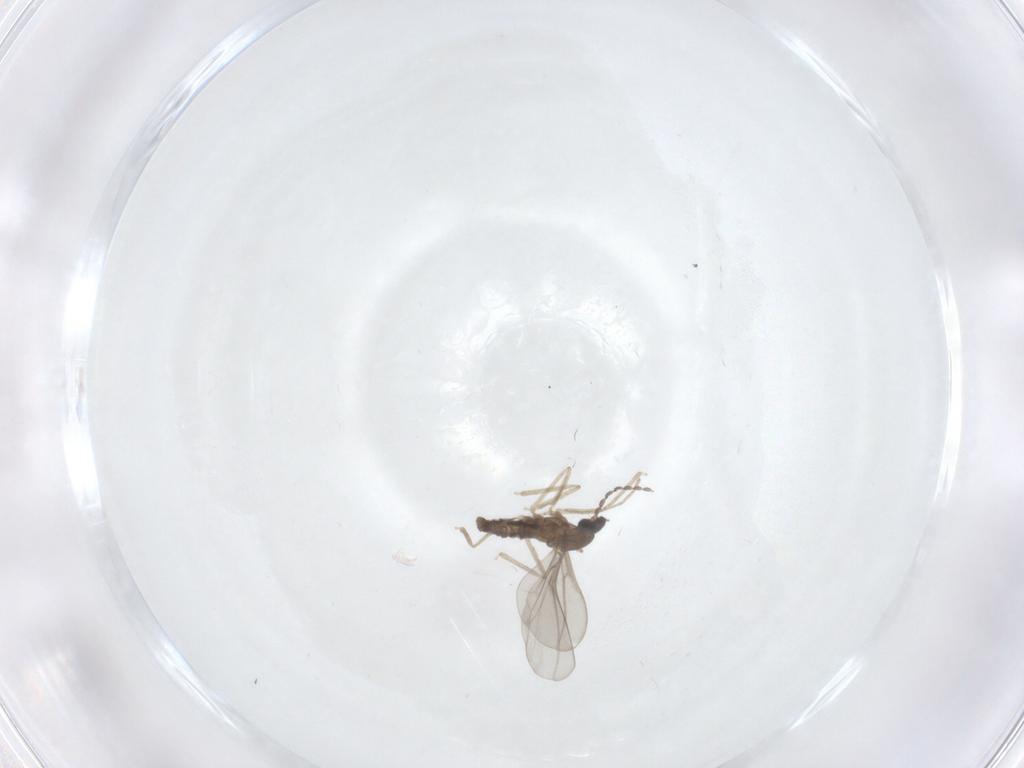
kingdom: Animalia
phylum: Arthropoda
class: Insecta
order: Diptera
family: Cecidomyiidae
